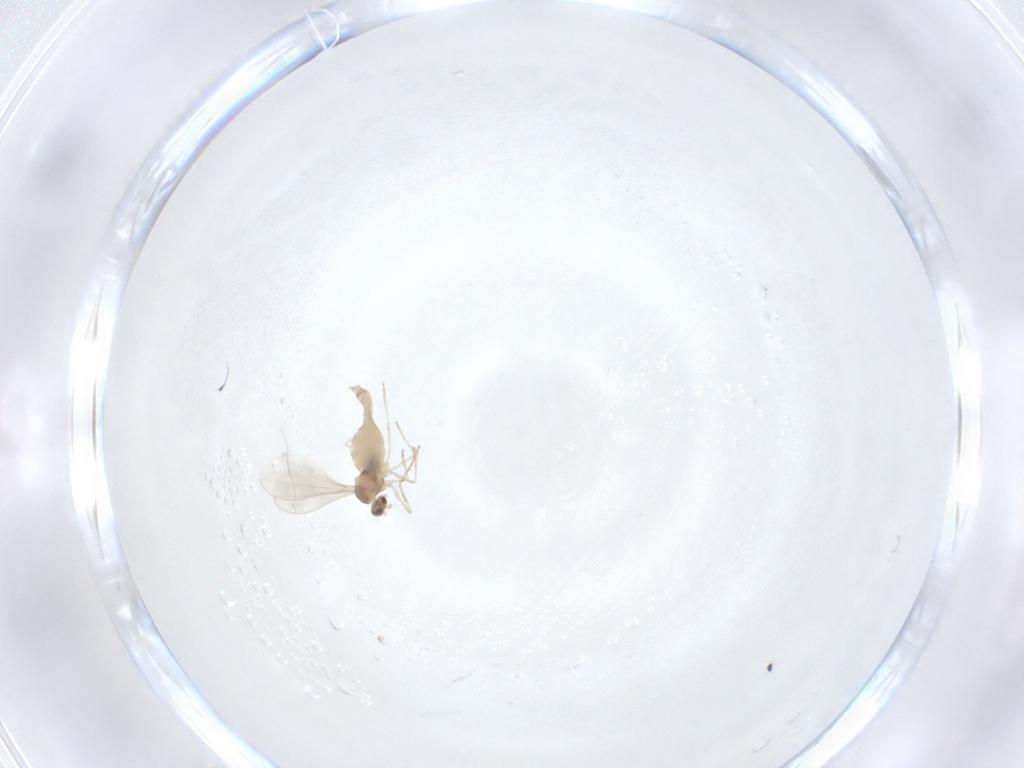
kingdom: Animalia
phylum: Arthropoda
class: Insecta
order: Diptera
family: Cecidomyiidae
